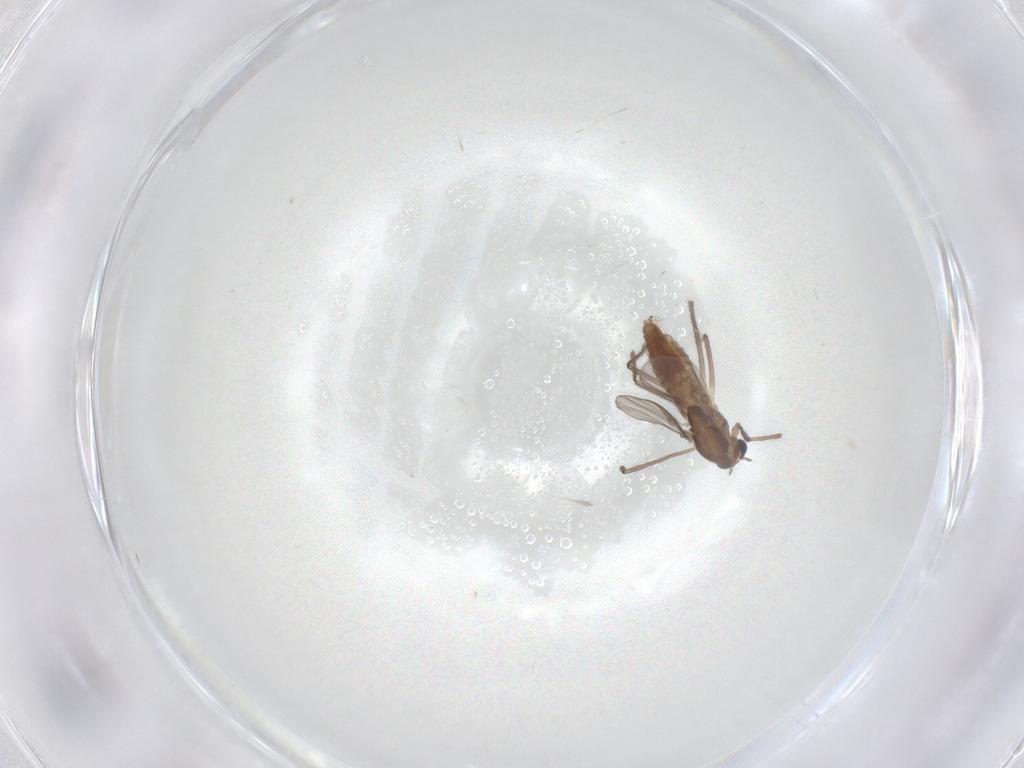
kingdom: Animalia
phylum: Arthropoda
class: Insecta
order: Diptera
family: Chironomidae
